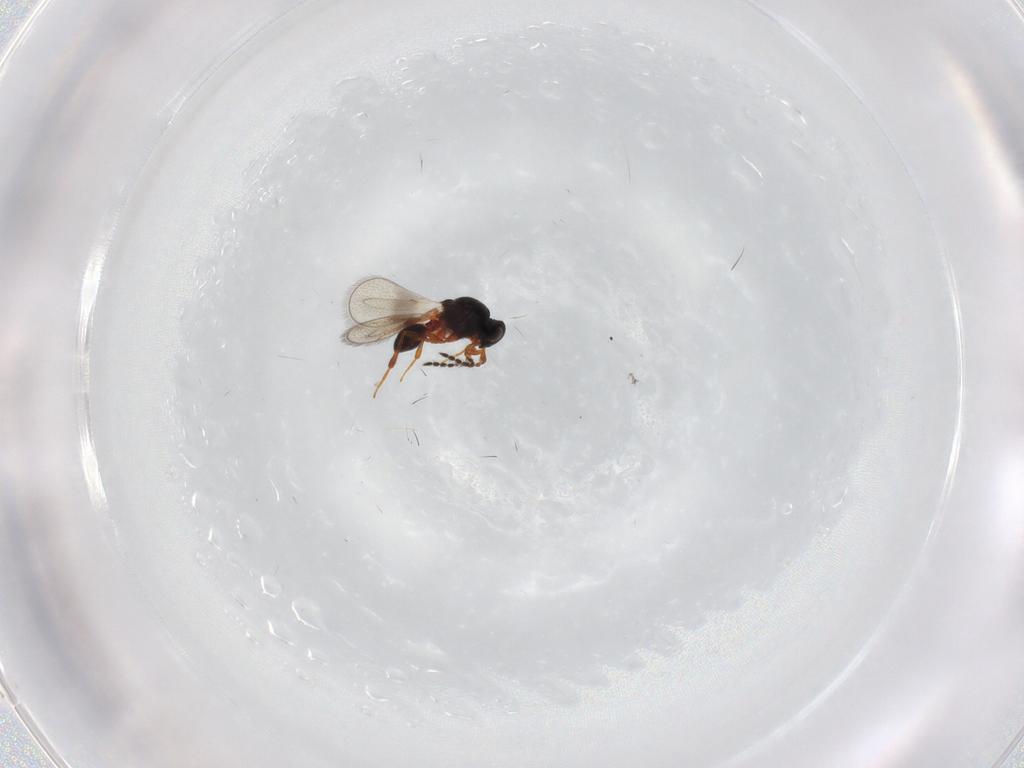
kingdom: Animalia
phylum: Arthropoda
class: Insecta
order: Hymenoptera
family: Platygastridae
